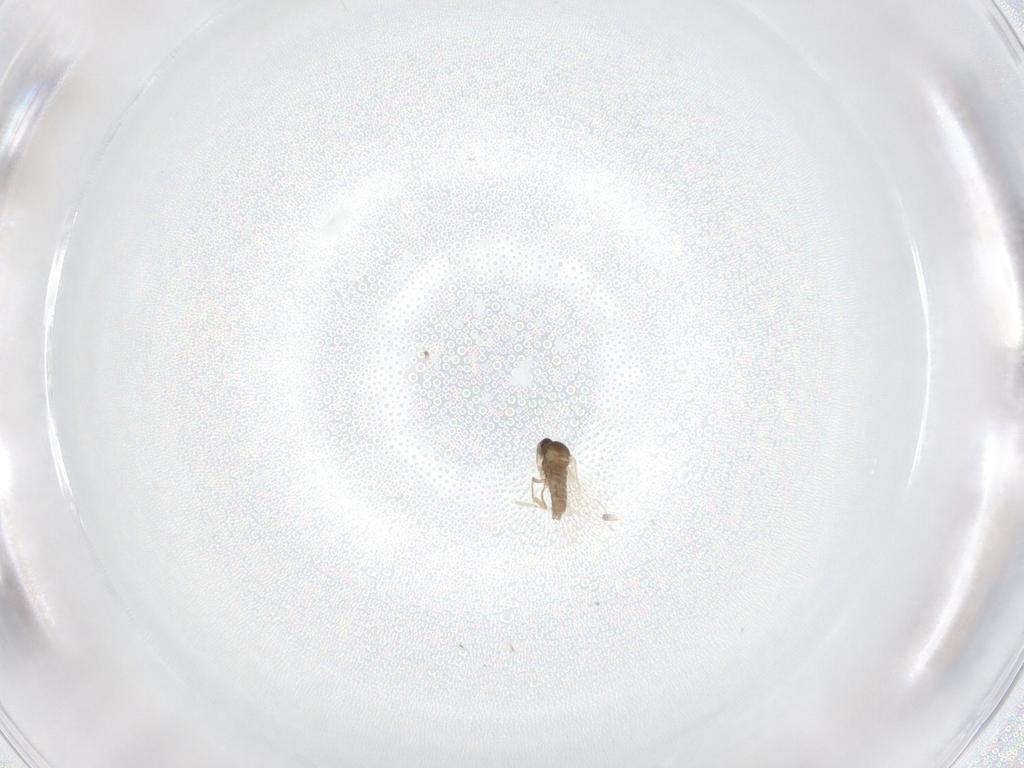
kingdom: Animalia
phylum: Arthropoda
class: Insecta
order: Diptera
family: Cecidomyiidae
